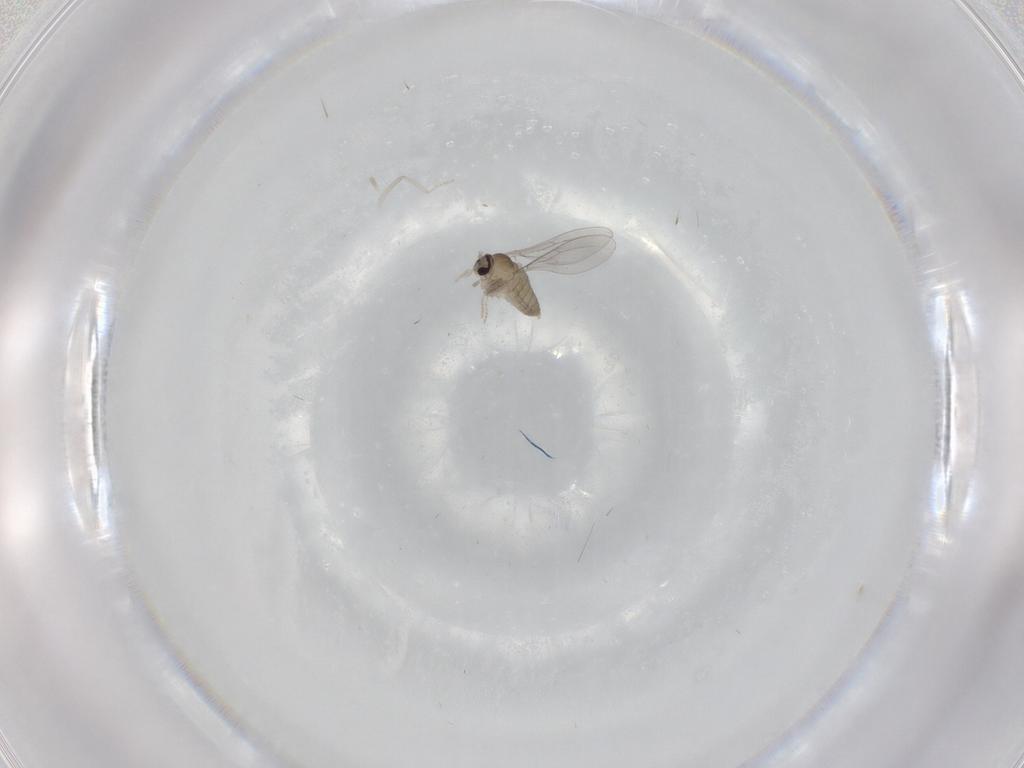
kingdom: Animalia
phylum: Arthropoda
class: Insecta
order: Diptera
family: Cecidomyiidae
